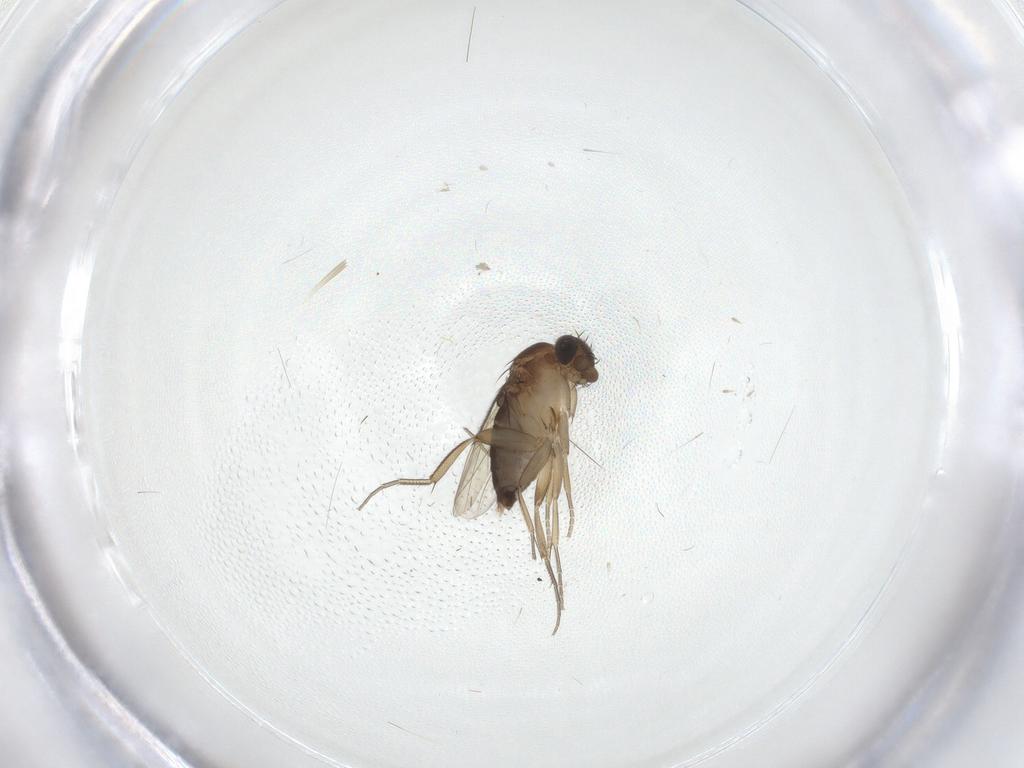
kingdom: Animalia
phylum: Arthropoda
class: Insecta
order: Diptera
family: Phoridae
